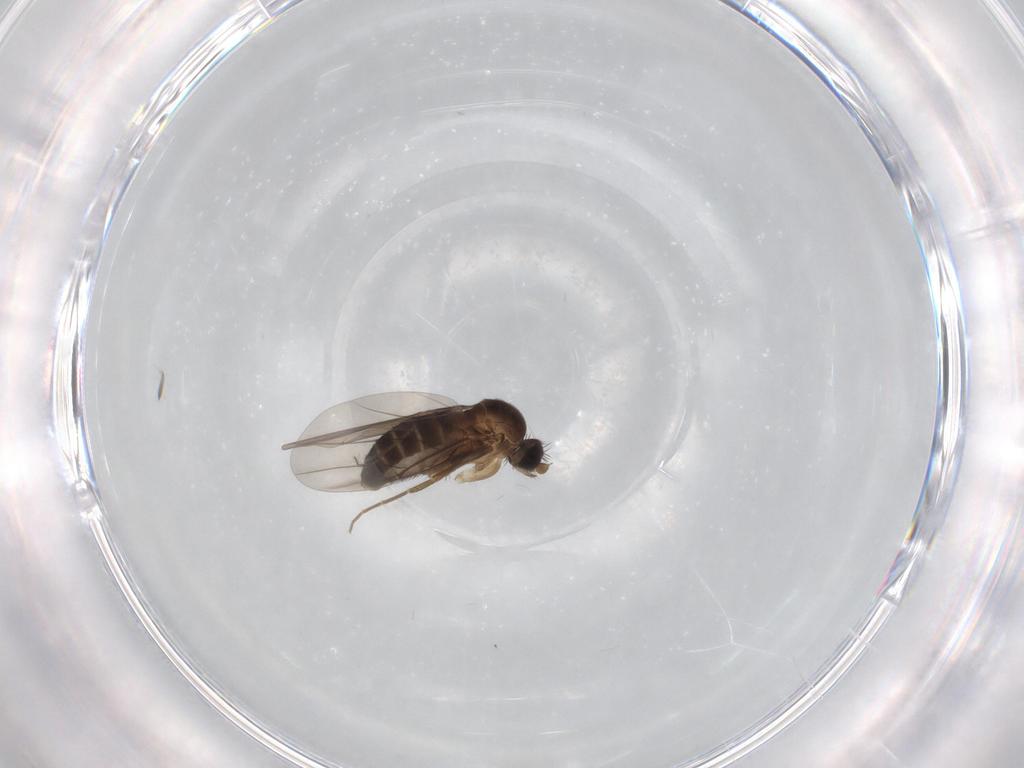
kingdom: Animalia
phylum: Arthropoda
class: Insecta
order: Diptera
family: Phoridae
